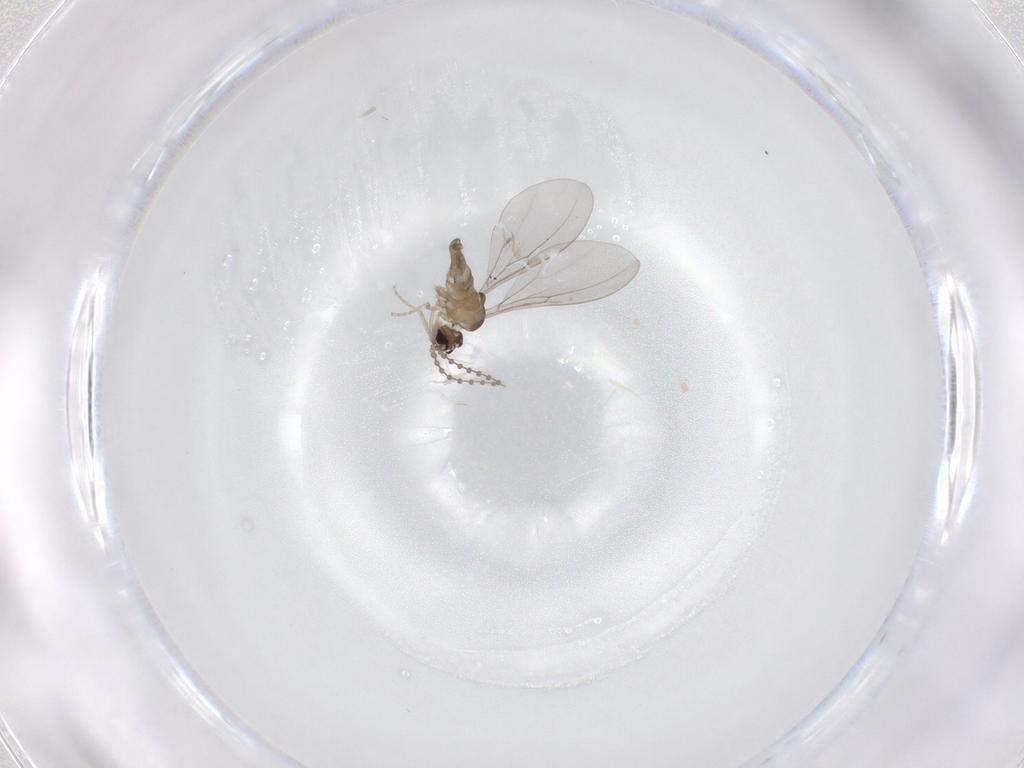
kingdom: Animalia
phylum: Arthropoda
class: Insecta
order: Diptera
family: Cecidomyiidae
